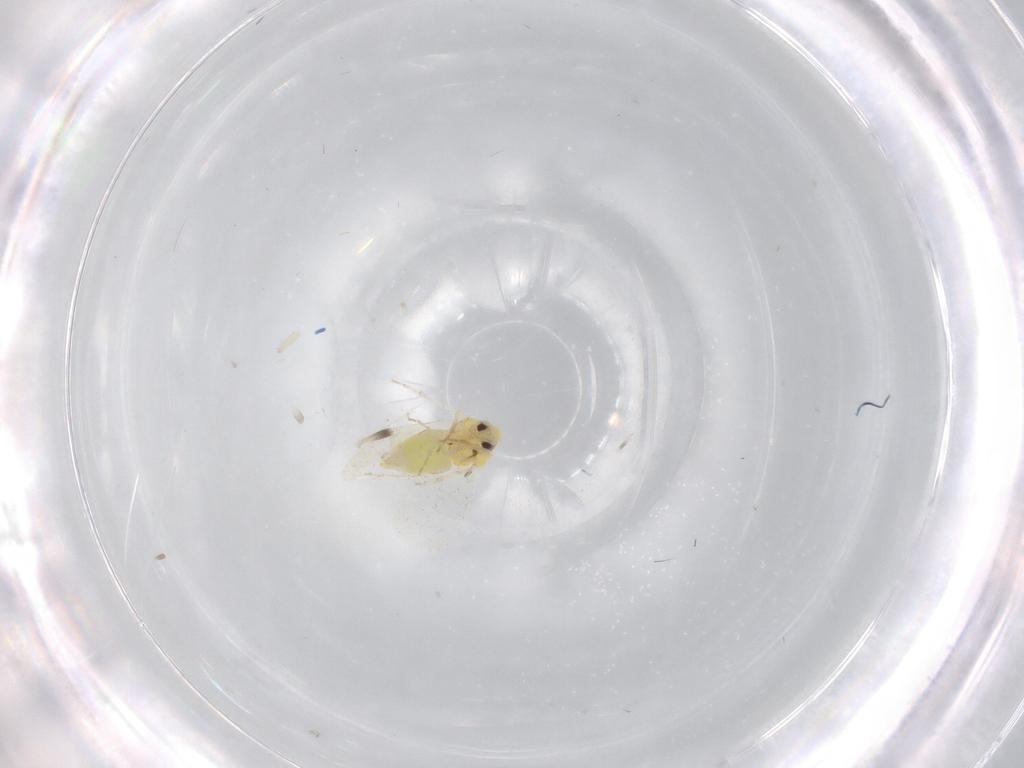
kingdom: Animalia
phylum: Arthropoda
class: Insecta
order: Hemiptera
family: Aleyrodidae
